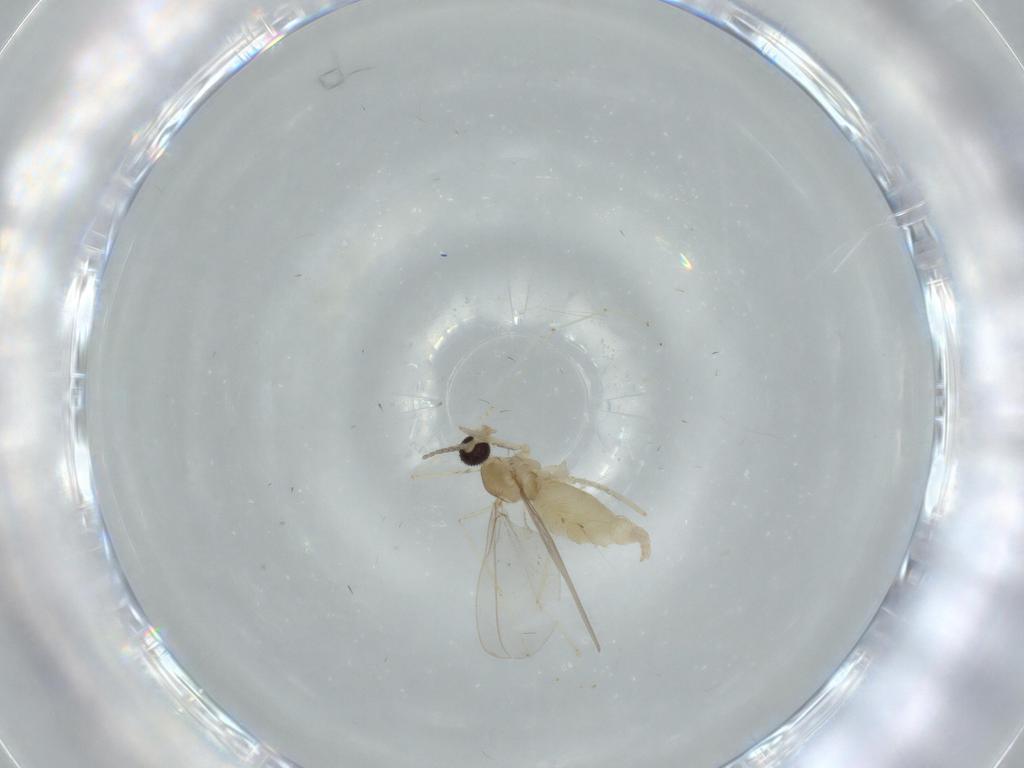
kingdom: Animalia
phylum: Arthropoda
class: Insecta
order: Diptera
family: Cecidomyiidae
